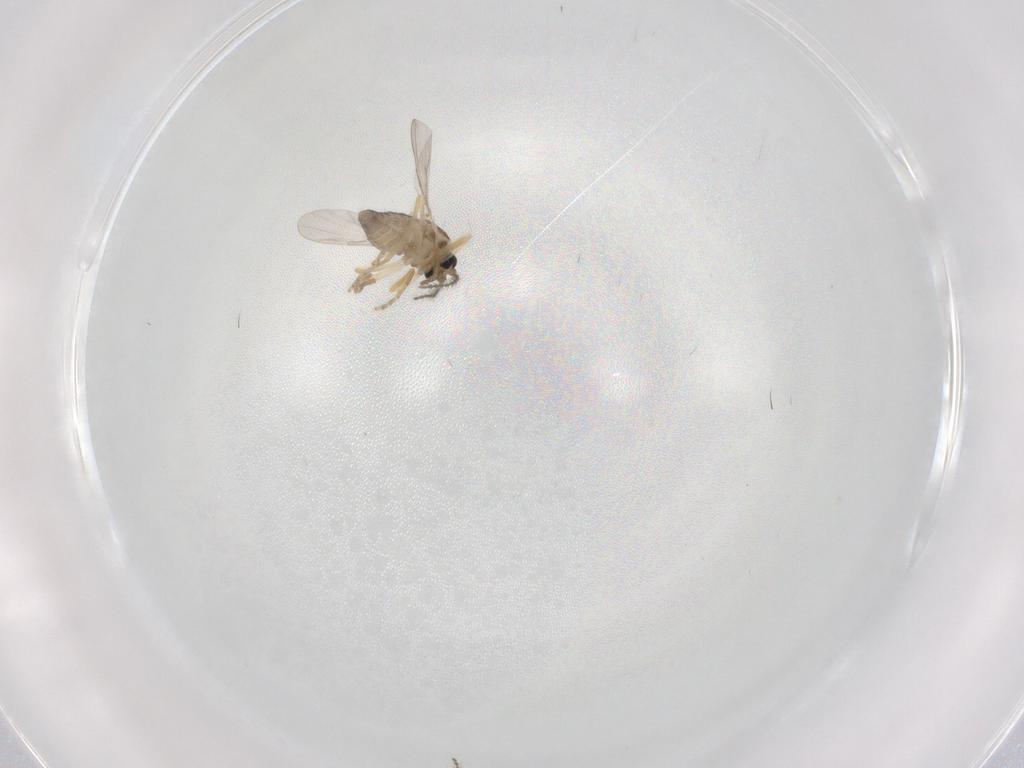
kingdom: Animalia
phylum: Arthropoda
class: Insecta
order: Diptera
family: Ceratopogonidae
